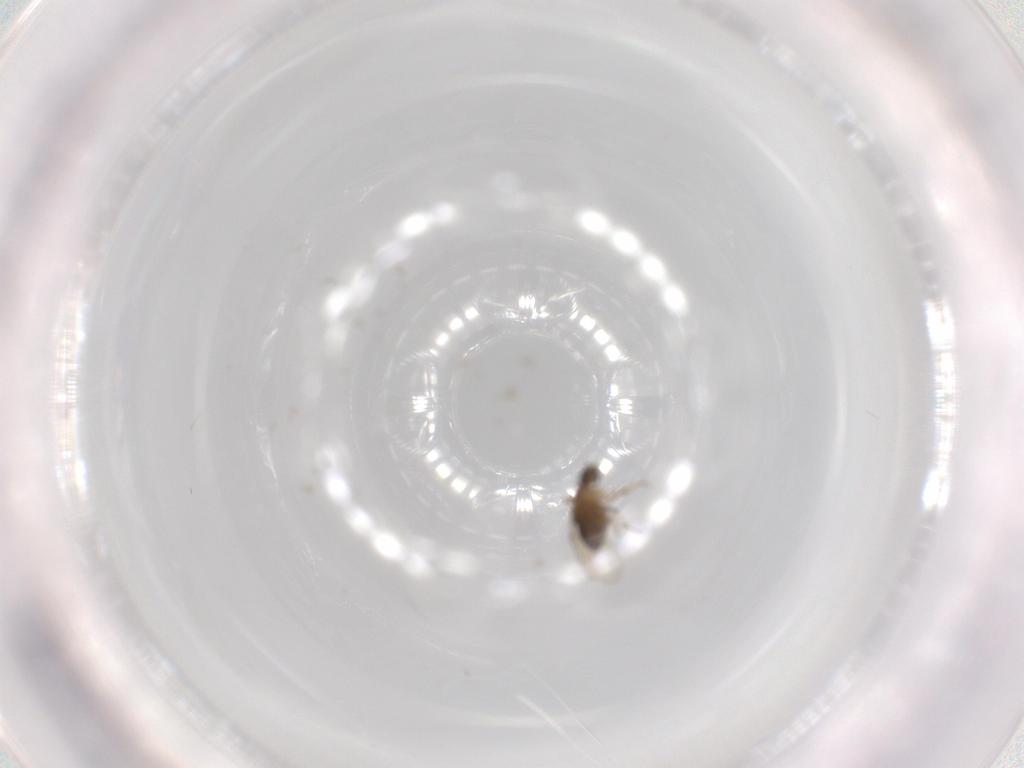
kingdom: Animalia
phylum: Arthropoda
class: Insecta
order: Diptera
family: Phoridae
